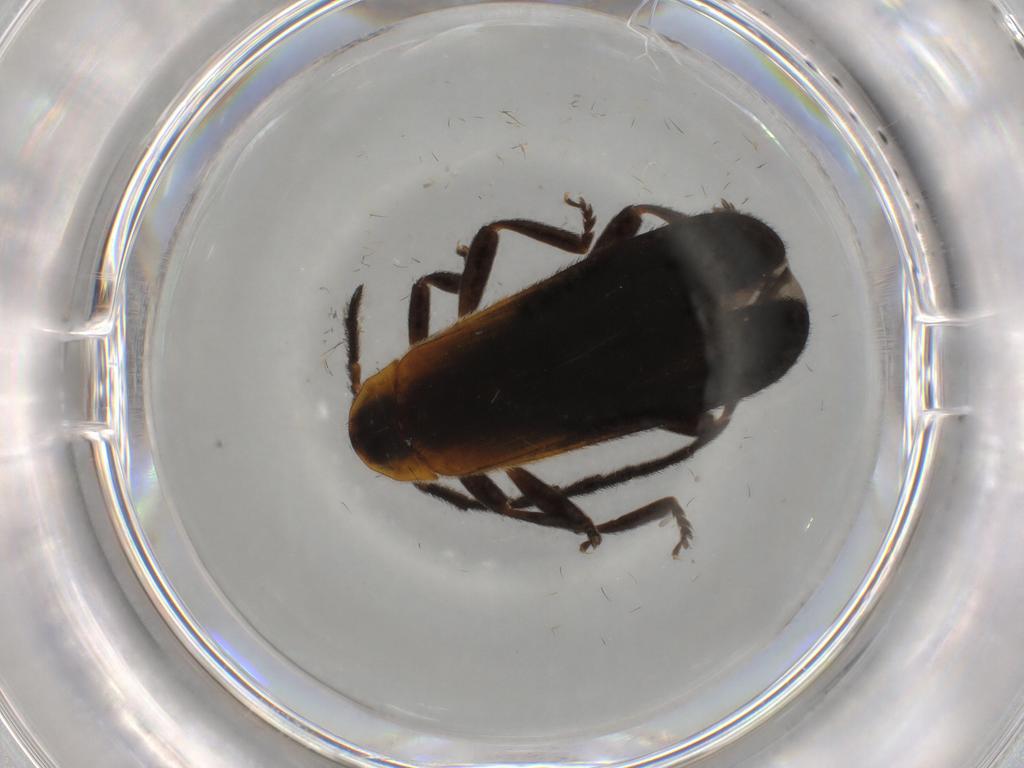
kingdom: Animalia
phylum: Arthropoda
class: Insecta
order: Coleoptera
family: Lycidae
